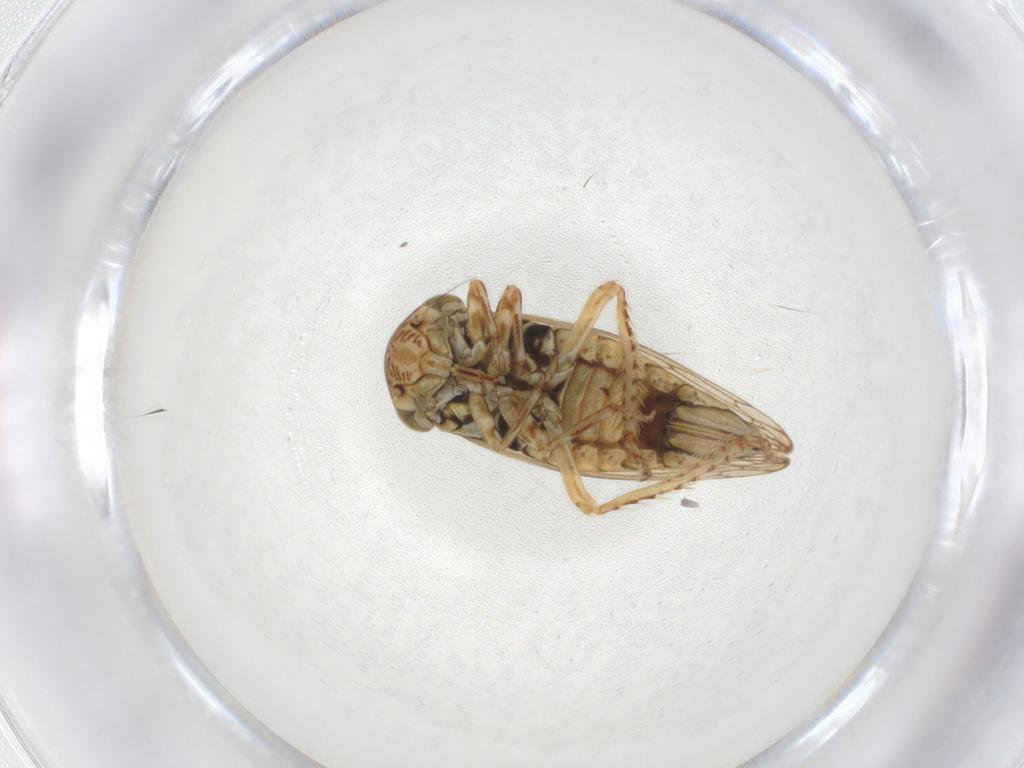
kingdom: Animalia
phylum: Arthropoda
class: Insecta
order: Hemiptera
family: Cicadellidae
